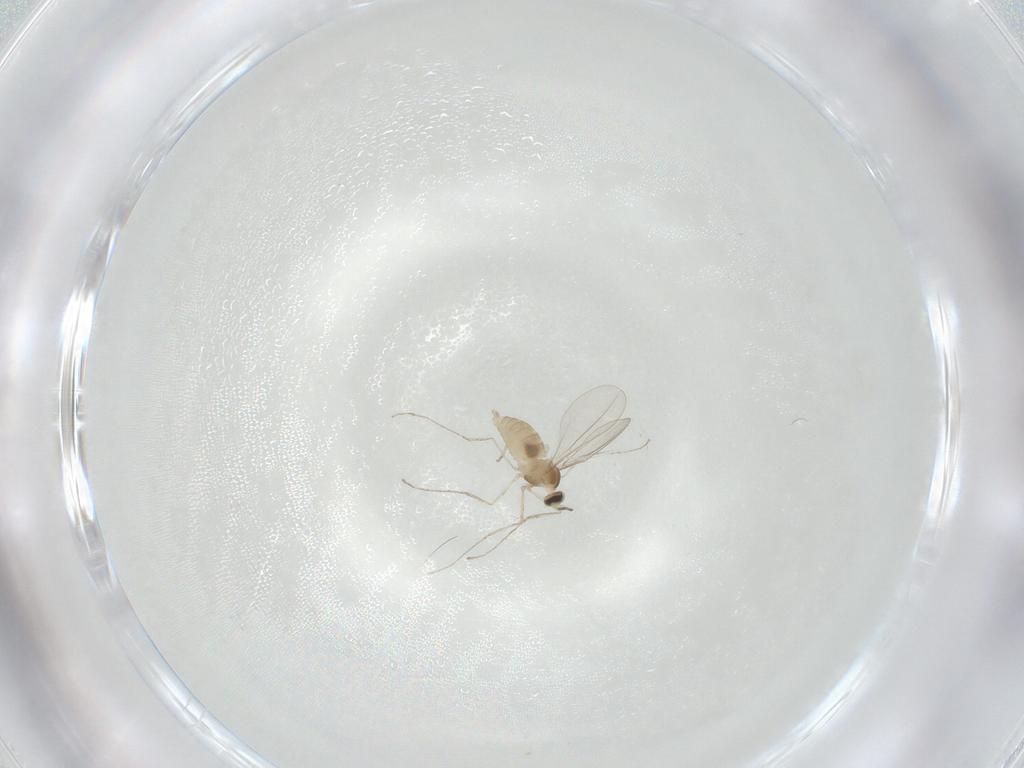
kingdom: Animalia
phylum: Arthropoda
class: Insecta
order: Diptera
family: Cecidomyiidae
